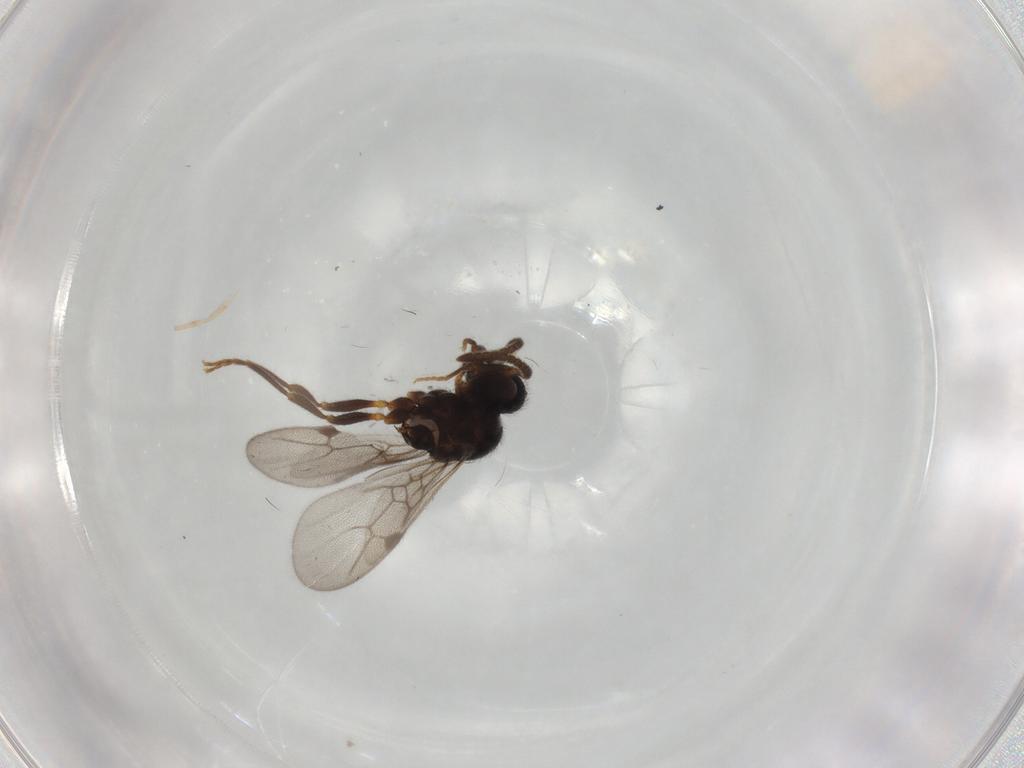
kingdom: Animalia
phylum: Arthropoda
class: Insecta
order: Hymenoptera
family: Formicidae
